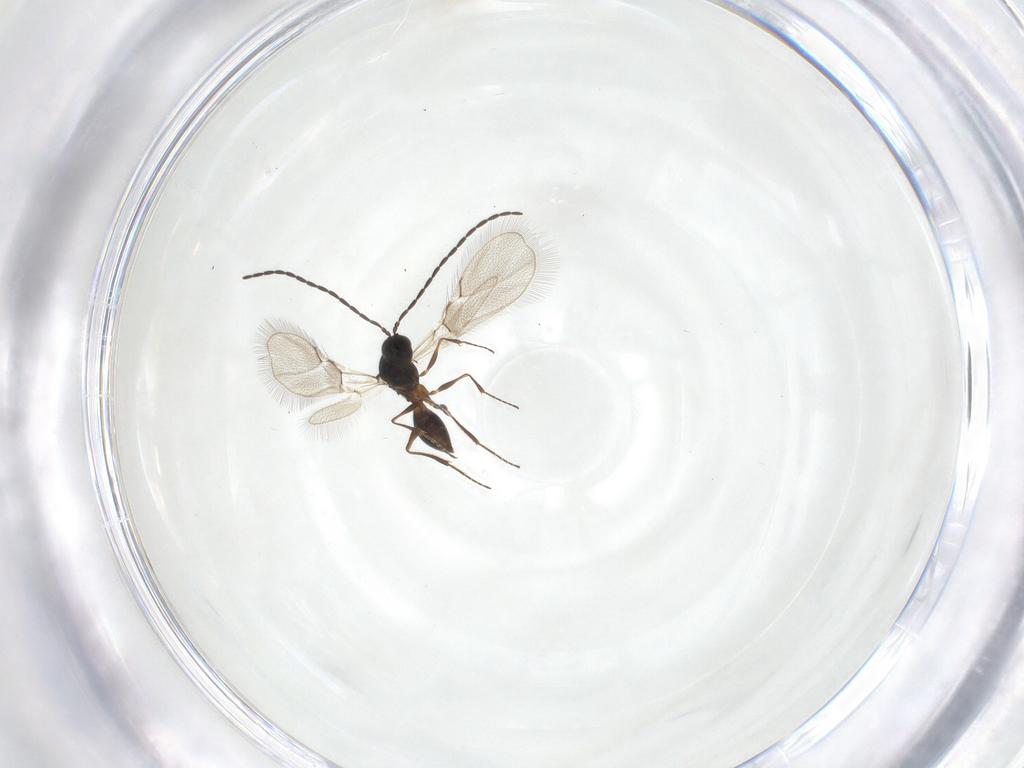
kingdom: Animalia
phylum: Arthropoda
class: Insecta
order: Hymenoptera
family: Figitidae
